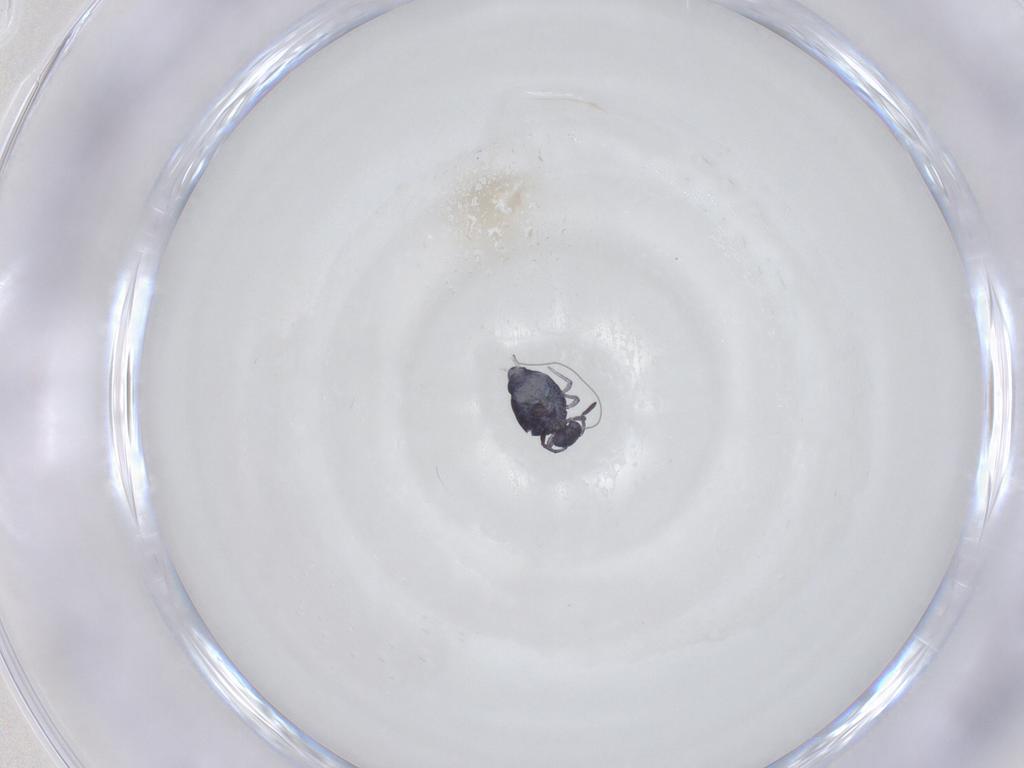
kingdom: Animalia
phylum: Arthropoda
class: Collembola
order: Symphypleona
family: Katiannidae
